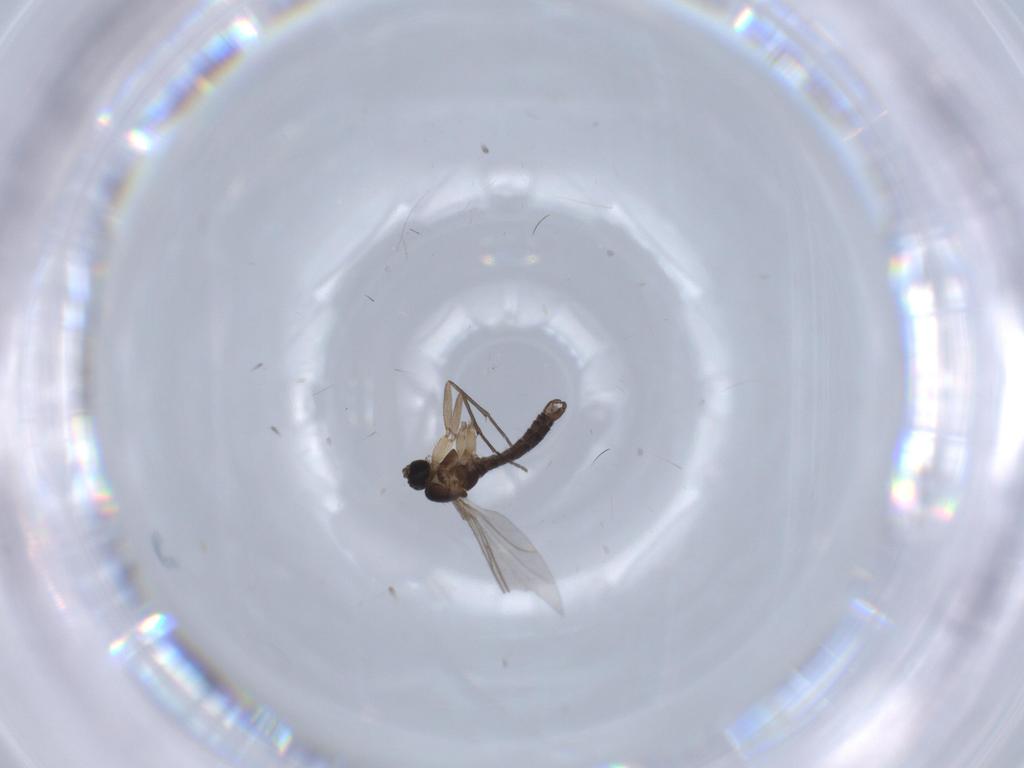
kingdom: Animalia
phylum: Arthropoda
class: Insecta
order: Diptera
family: Sciaridae
